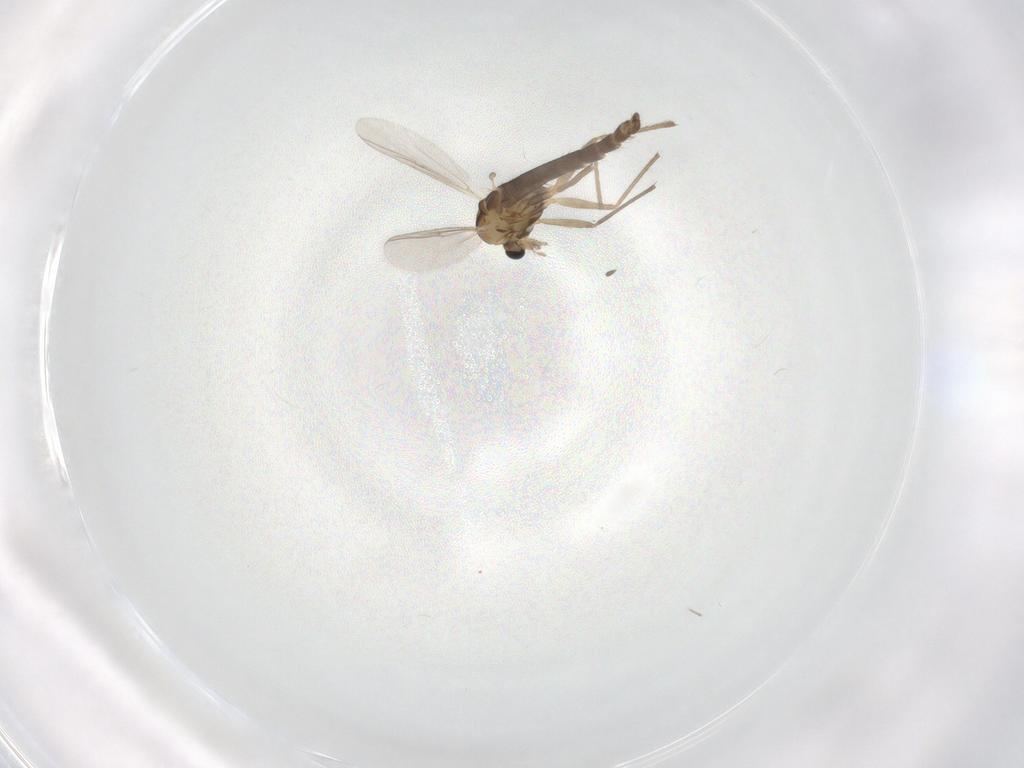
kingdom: Animalia
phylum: Arthropoda
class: Insecta
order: Diptera
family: Chironomidae
